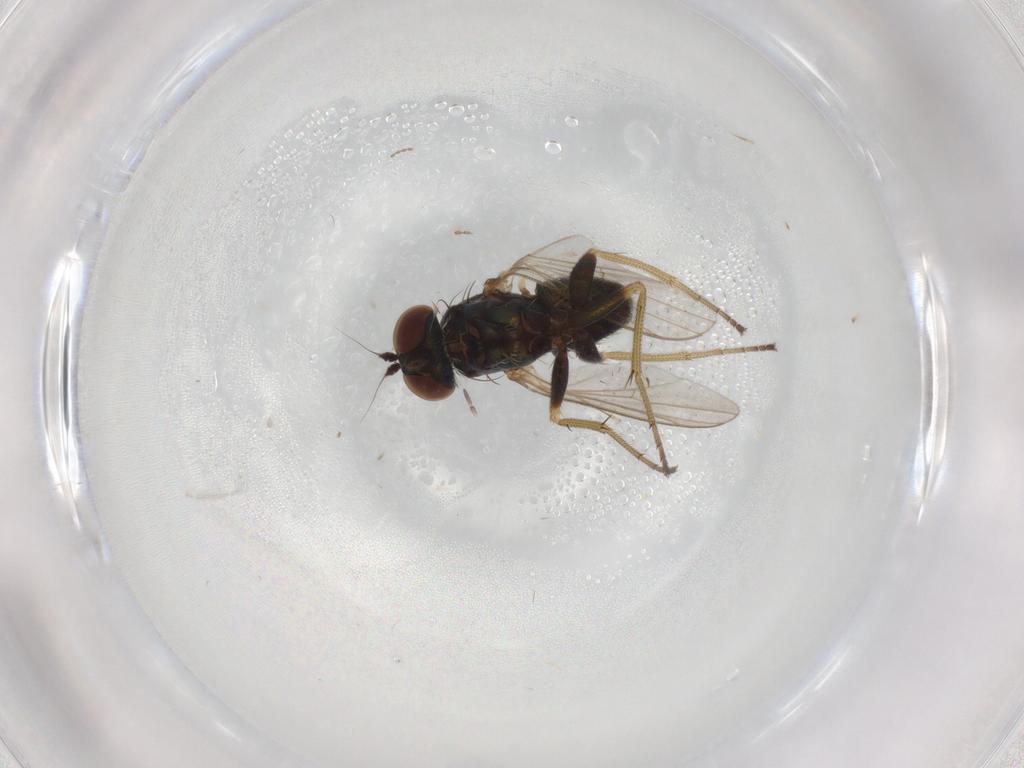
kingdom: Animalia
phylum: Arthropoda
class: Insecta
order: Diptera
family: Dolichopodidae
